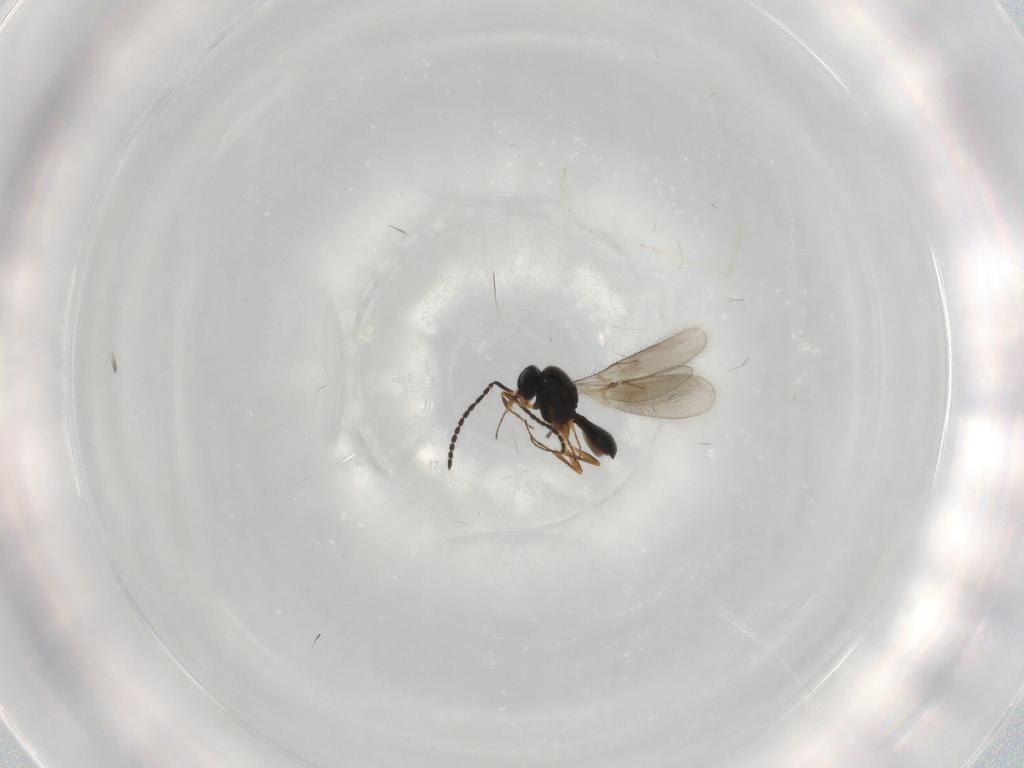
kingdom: Animalia
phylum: Arthropoda
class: Insecta
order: Hymenoptera
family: Scelionidae
